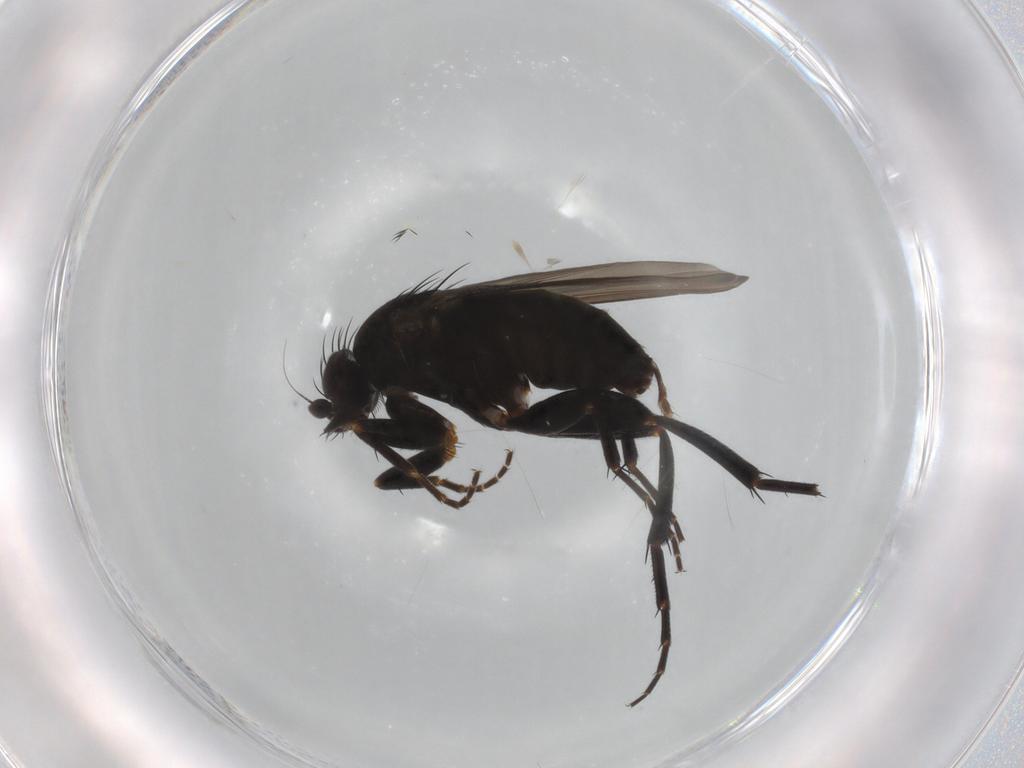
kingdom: Animalia
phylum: Arthropoda
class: Insecta
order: Diptera
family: Phoridae
